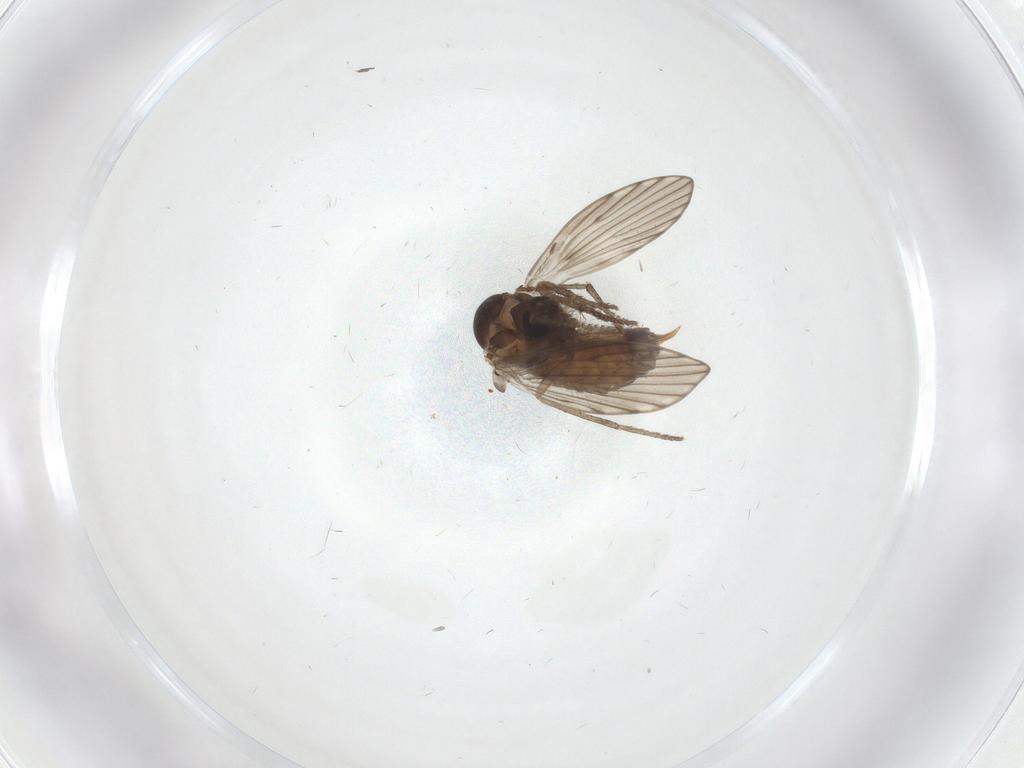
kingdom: Animalia
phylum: Arthropoda
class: Insecta
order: Diptera
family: Psychodidae
